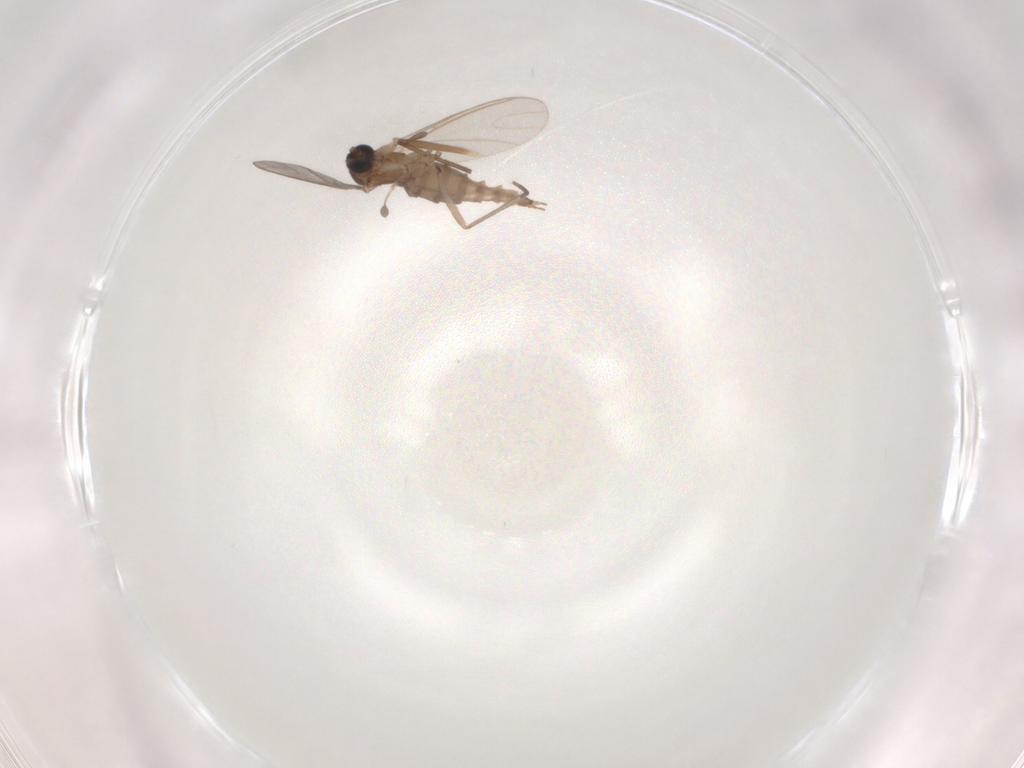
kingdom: Animalia
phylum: Arthropoda
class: Insecta
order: Diptera
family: Sciaridae
